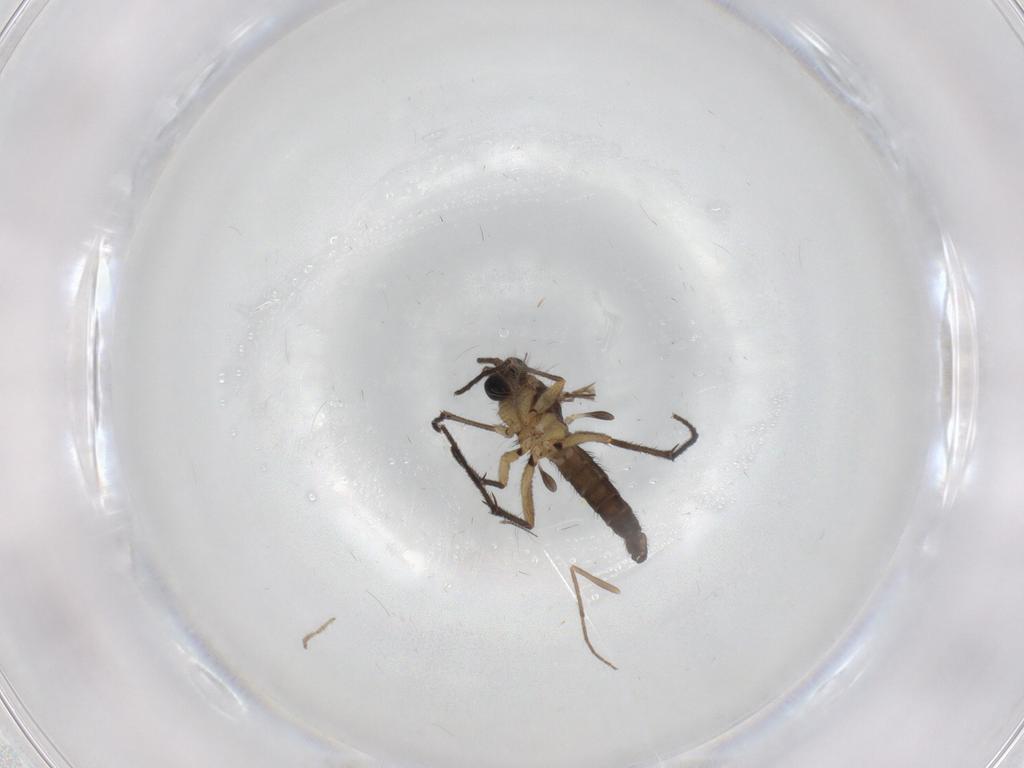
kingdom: Animalia
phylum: Arthropoda
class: Insecta
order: Diptera
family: Sciaridae
